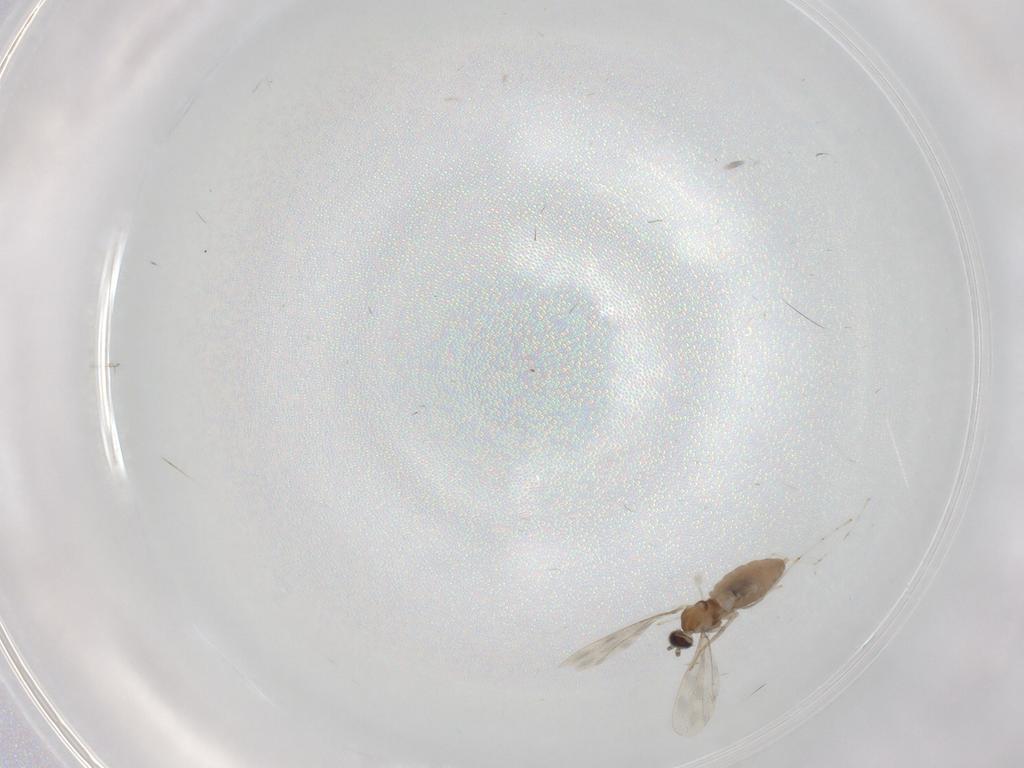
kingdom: Animalia
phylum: Arthropoda
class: Insecta
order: Diptera
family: Cecidomyiidae
